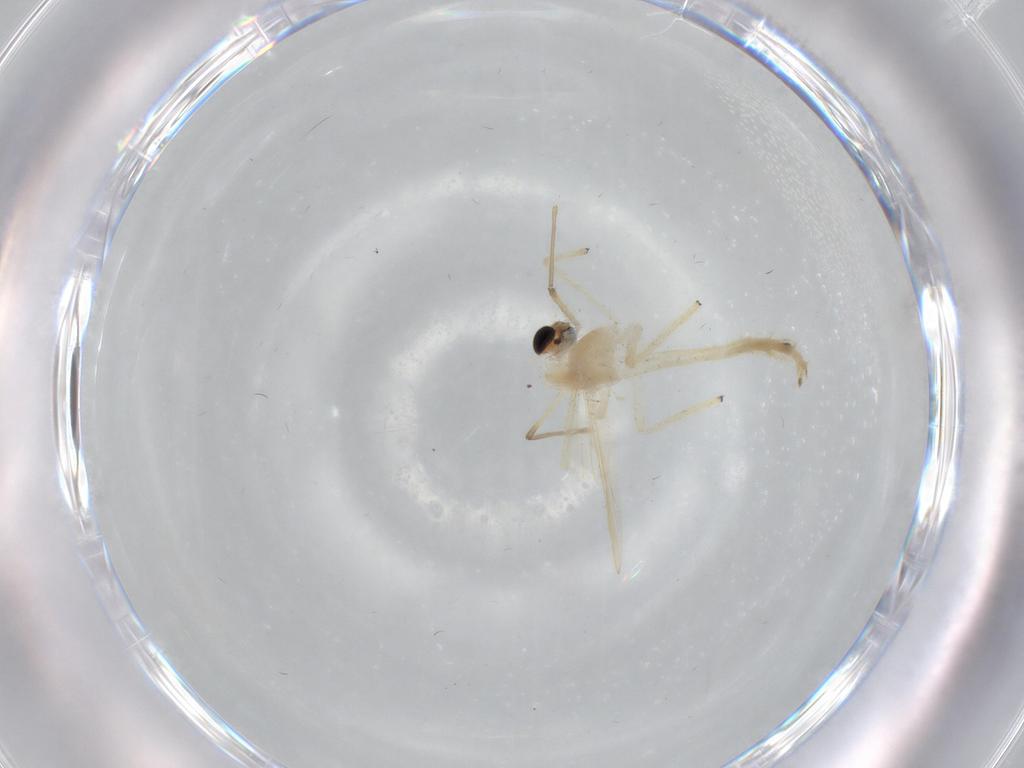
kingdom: Animalia
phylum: Arthropoda
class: Insecta
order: Diptera
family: Chironomidae
